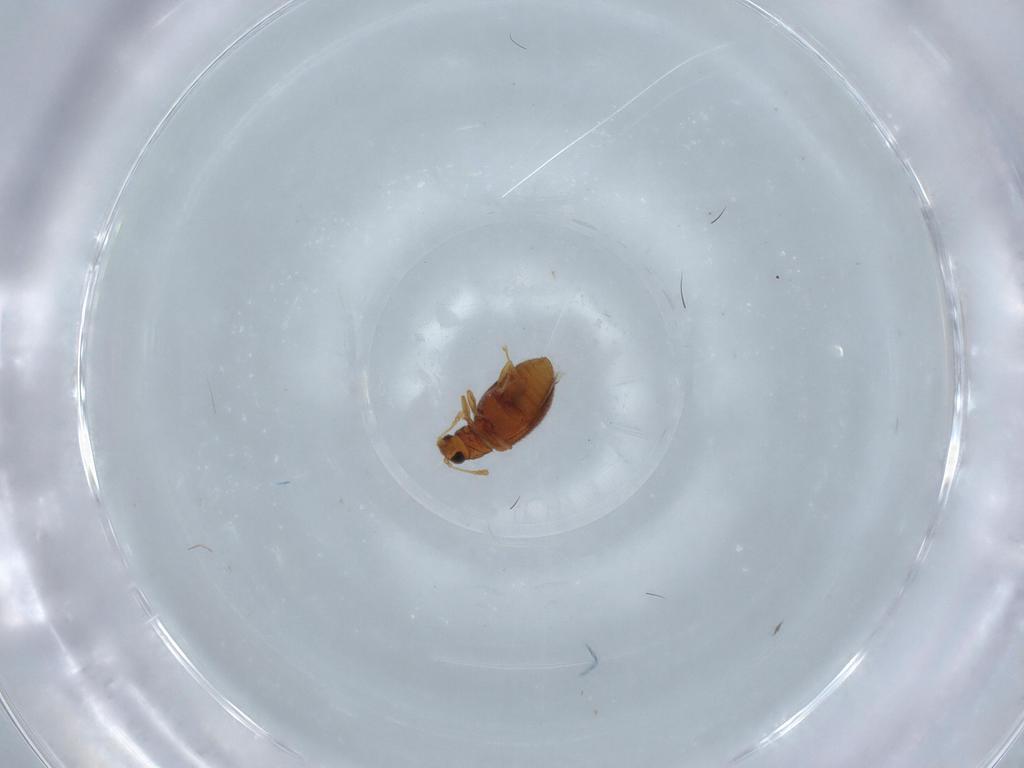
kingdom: Animalia
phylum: Arthropoda
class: Insecta
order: Coleoptera
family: Latridiidae
